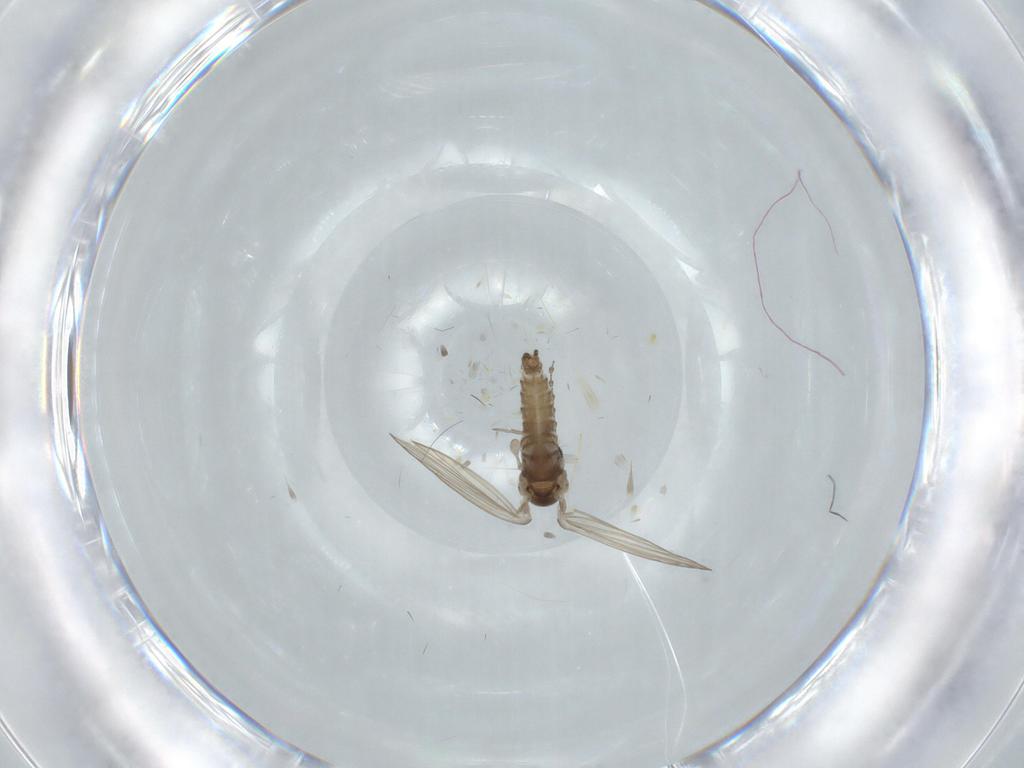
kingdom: Animalia
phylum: Arthropoda
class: Insecta
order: Diptera
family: Psychodidae
